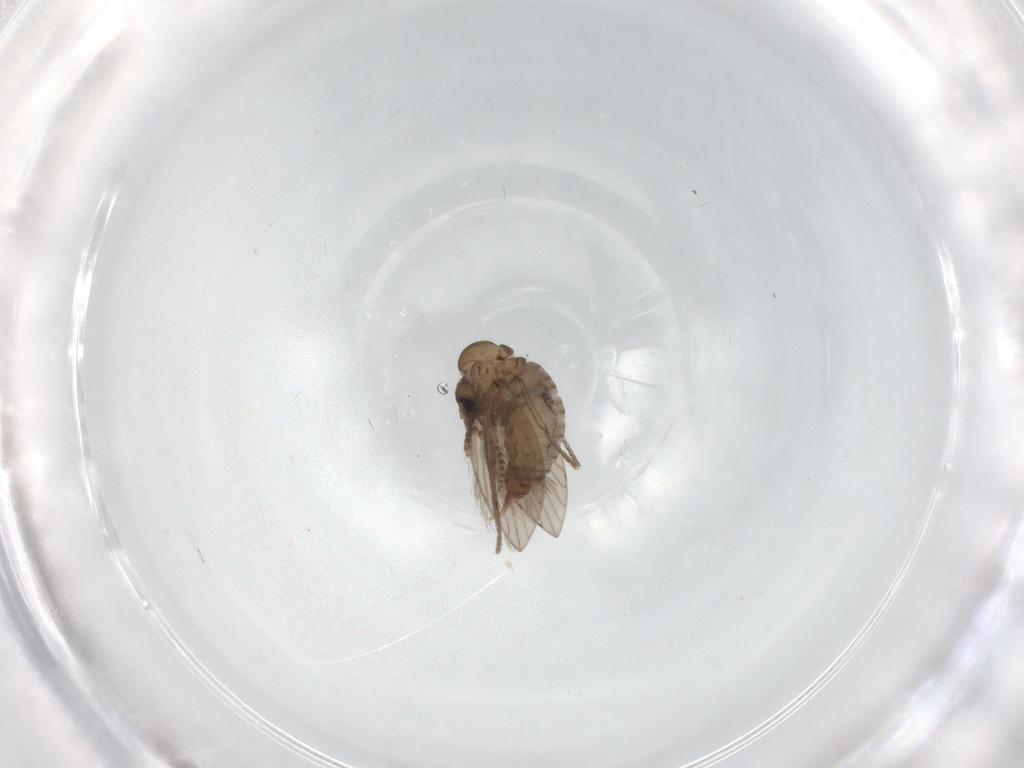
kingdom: Animalia
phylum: Arthropoda
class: Insecta
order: Diptera
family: Psychodidae
